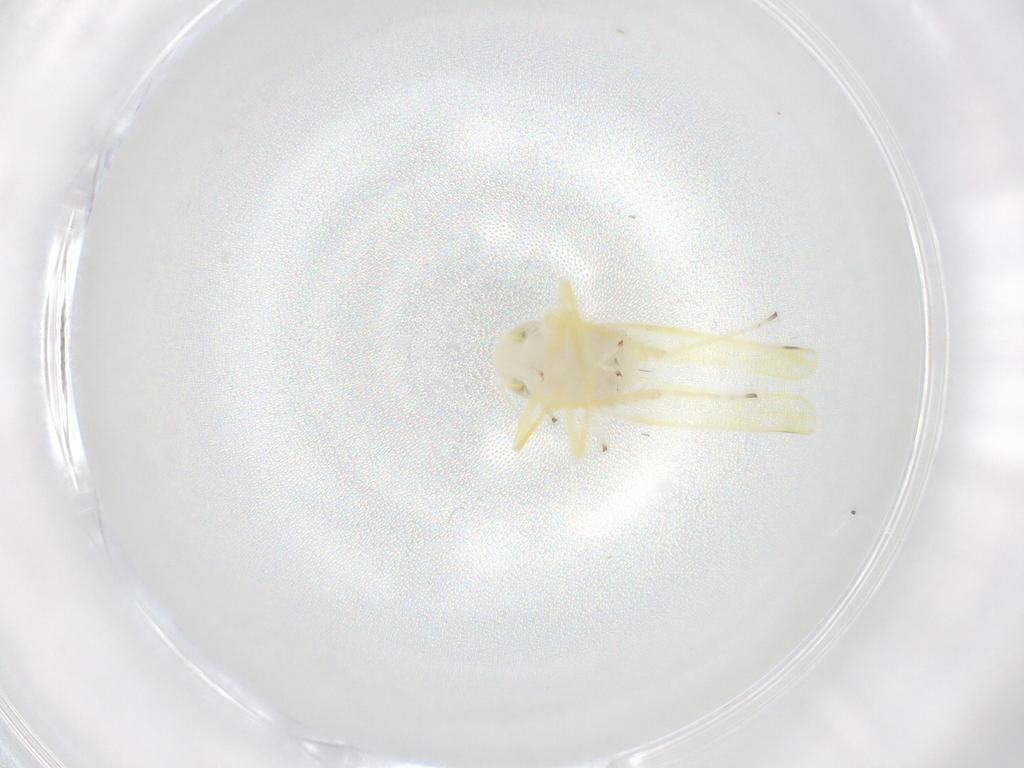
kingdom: Animalia
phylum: Arthropoda
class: Insecta
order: Hemiptera
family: Cicadellidae
